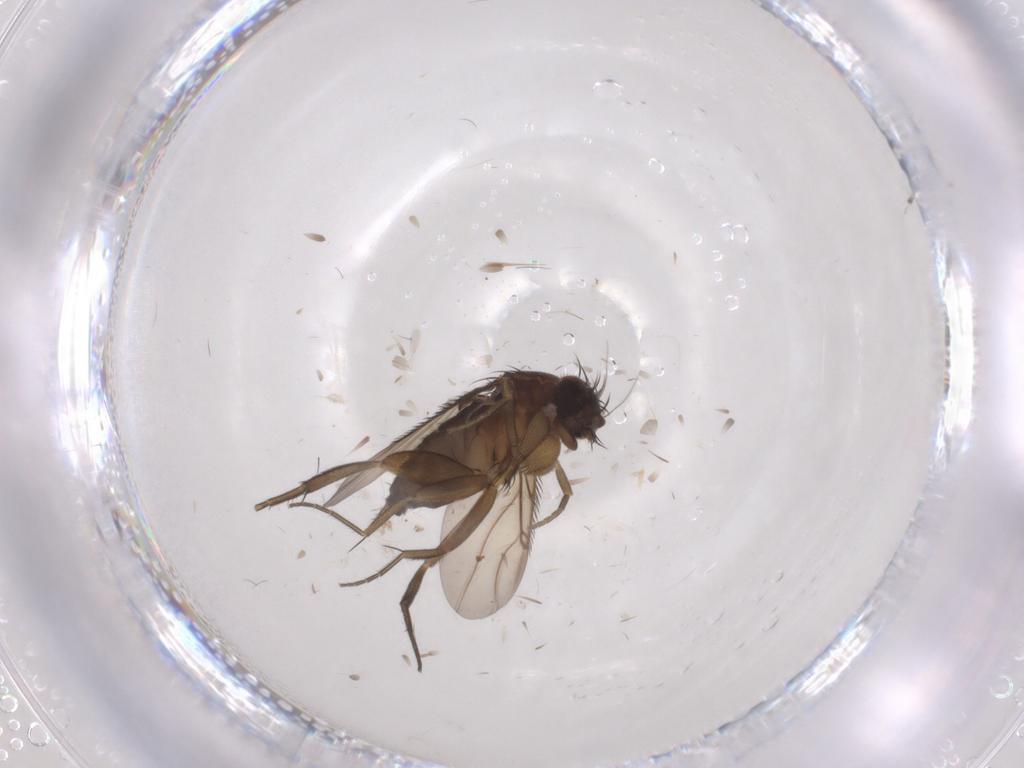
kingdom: Animalia
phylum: Arthropoda
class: Insecta
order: Diptera
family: Phoridae
